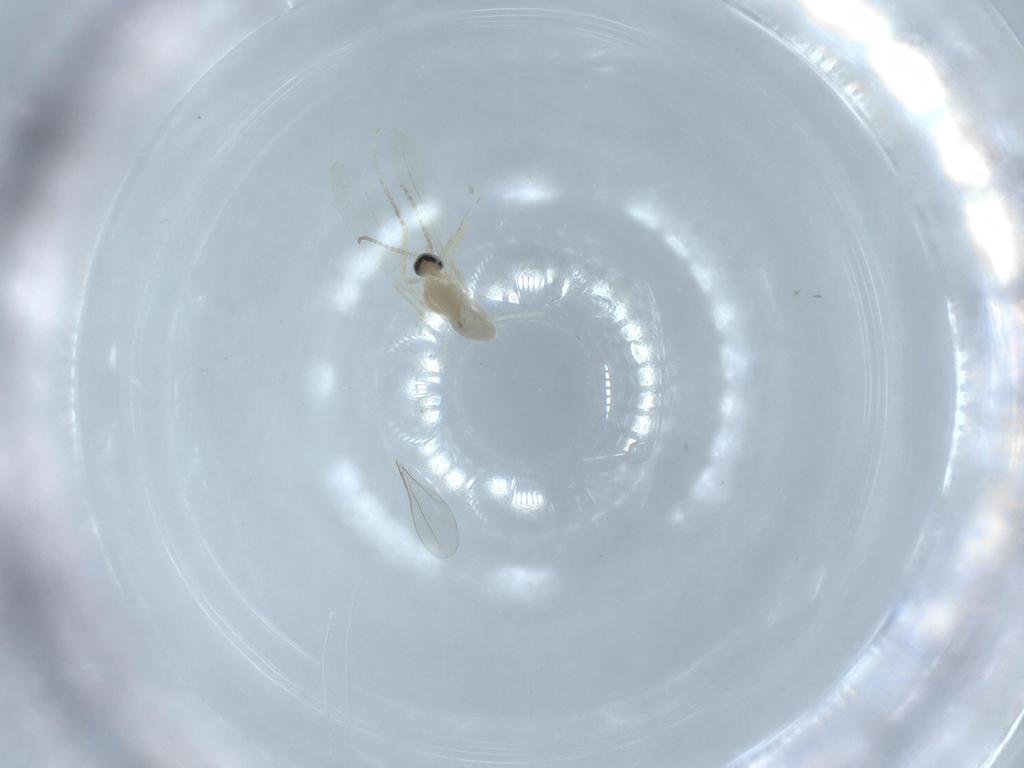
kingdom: Animalia
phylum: Arthropoda
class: Insecta
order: Diptera
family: Cecidomyiidae
